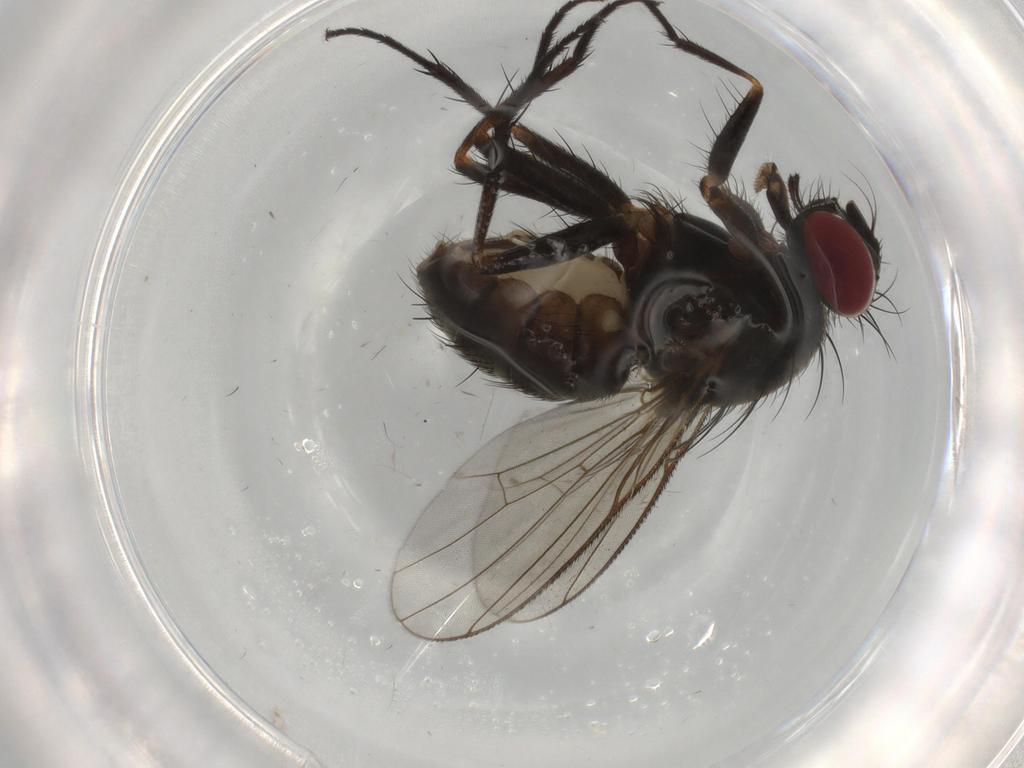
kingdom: Animalia
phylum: Arthropoda
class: Insecta
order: Diptera
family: Muscidae
